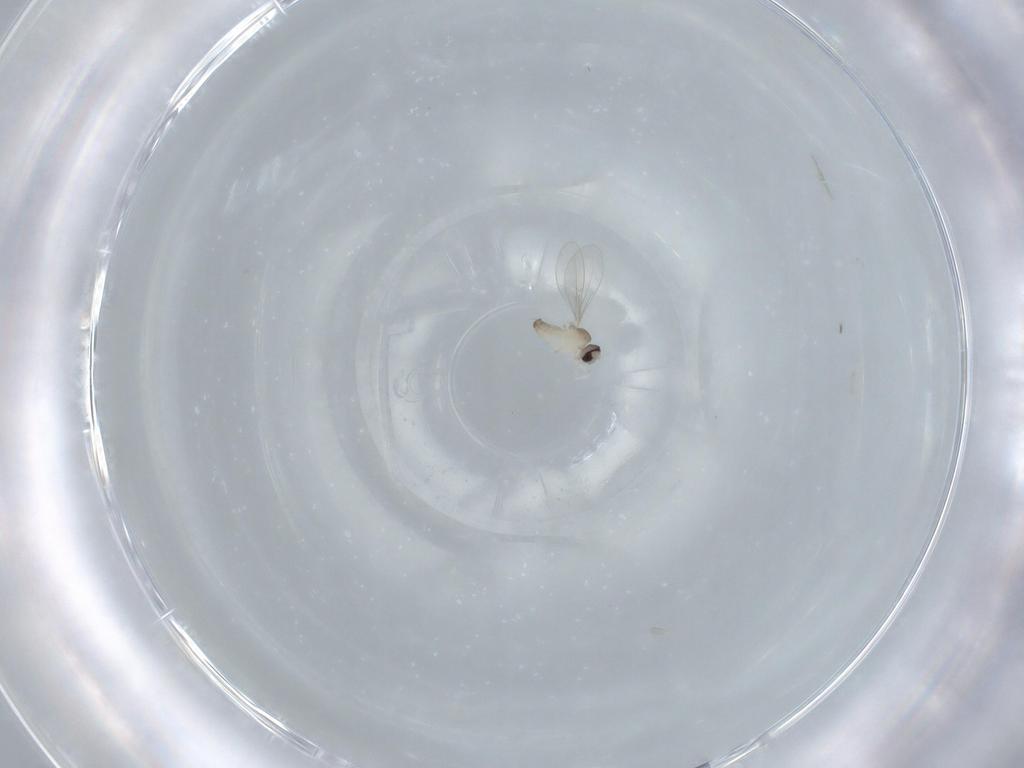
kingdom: Animalia
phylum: Arthropoda
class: Insecta
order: Diptera
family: Cecidomyiidae
